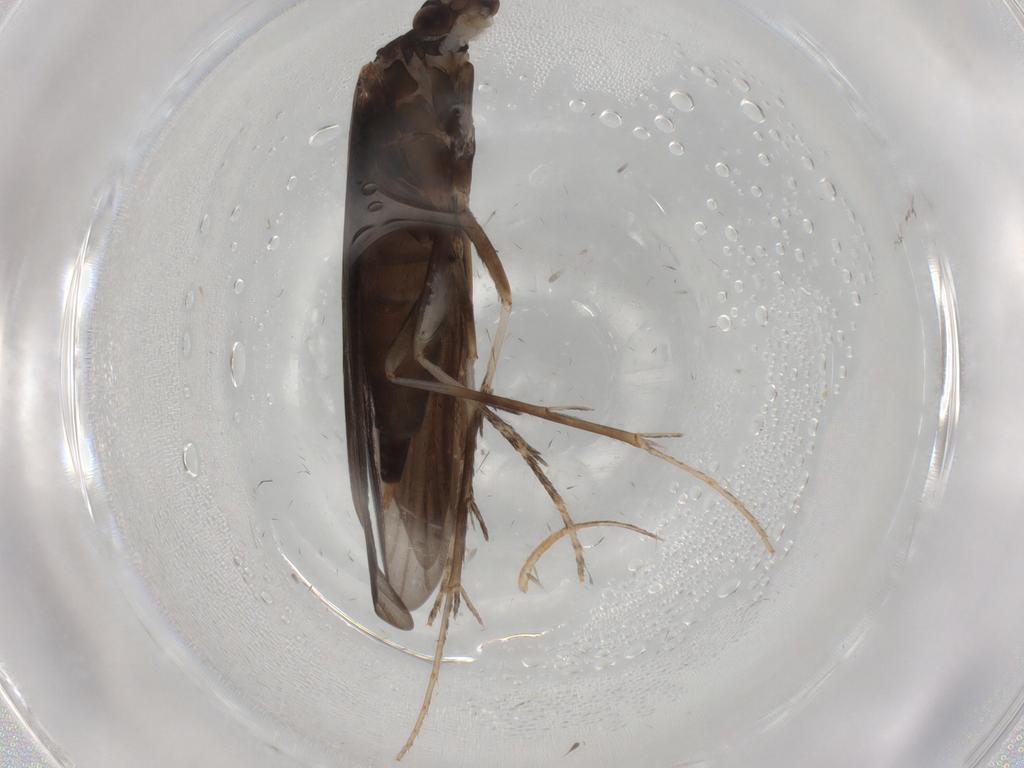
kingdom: Animalia
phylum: Arthropoda
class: Insecta
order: Trichoptera
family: Xiphocentronidae
